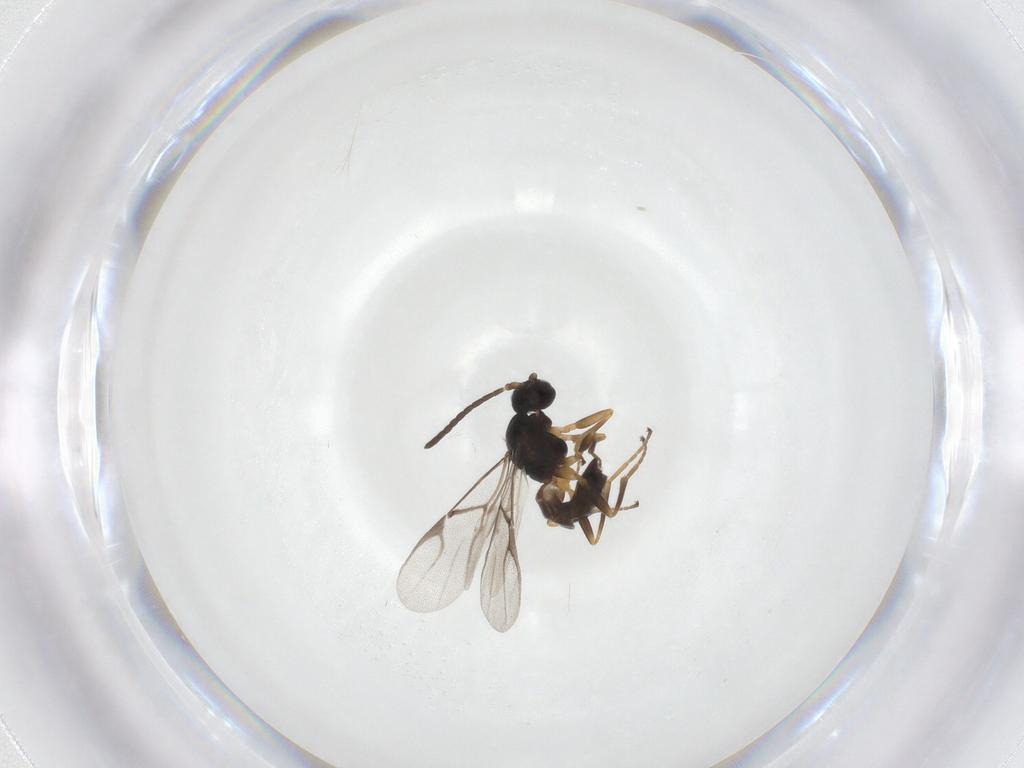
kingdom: Animalia
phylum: Arthropoda
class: Insecta
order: Hymenoptera
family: Braconidae
